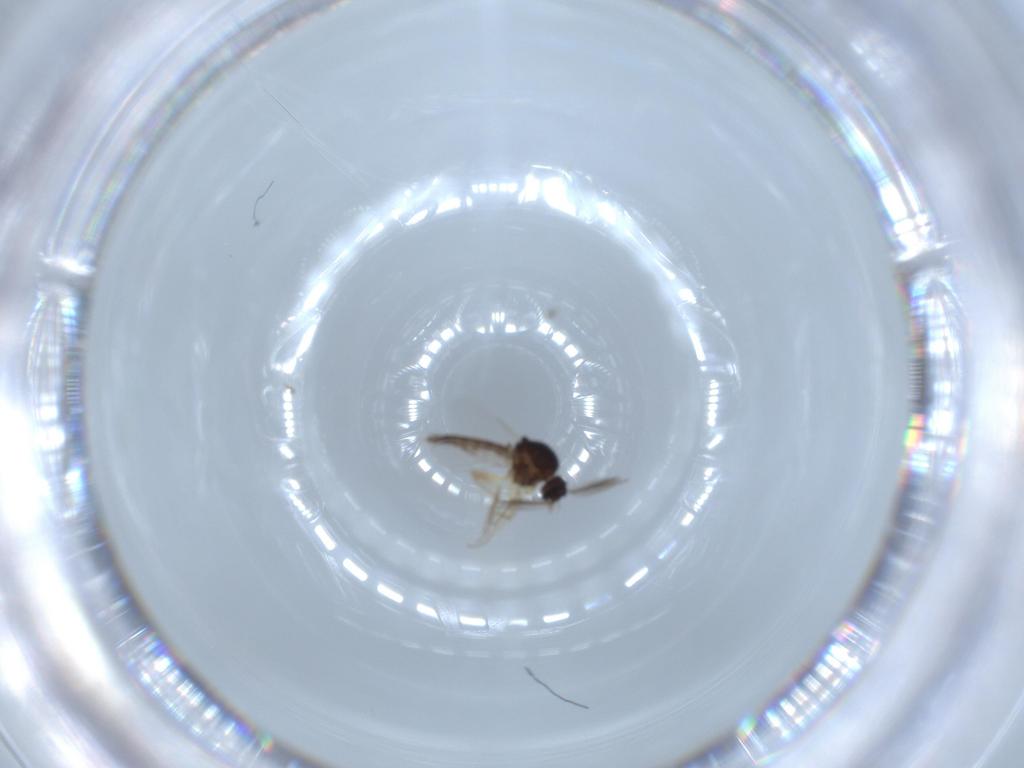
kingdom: Animalia
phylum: Arthropoda
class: Insecta
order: Diptera
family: Ceratopogonidae
